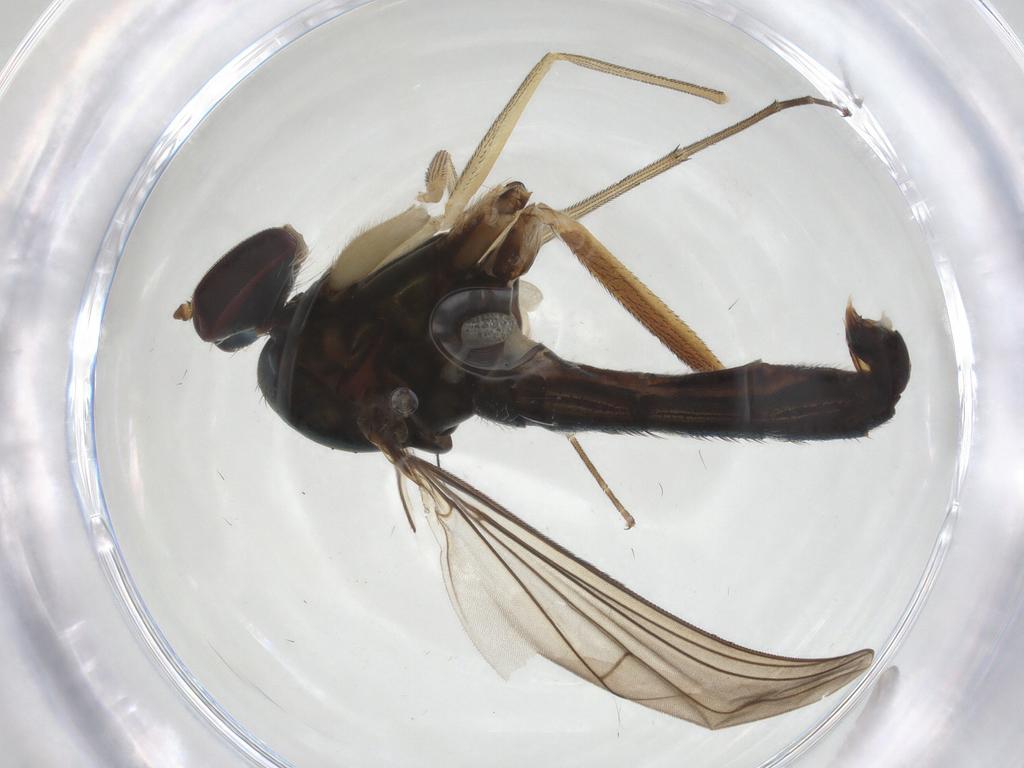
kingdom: Animalia
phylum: Arthropoda
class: Insecta
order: Diptera
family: Dolichopodidae
